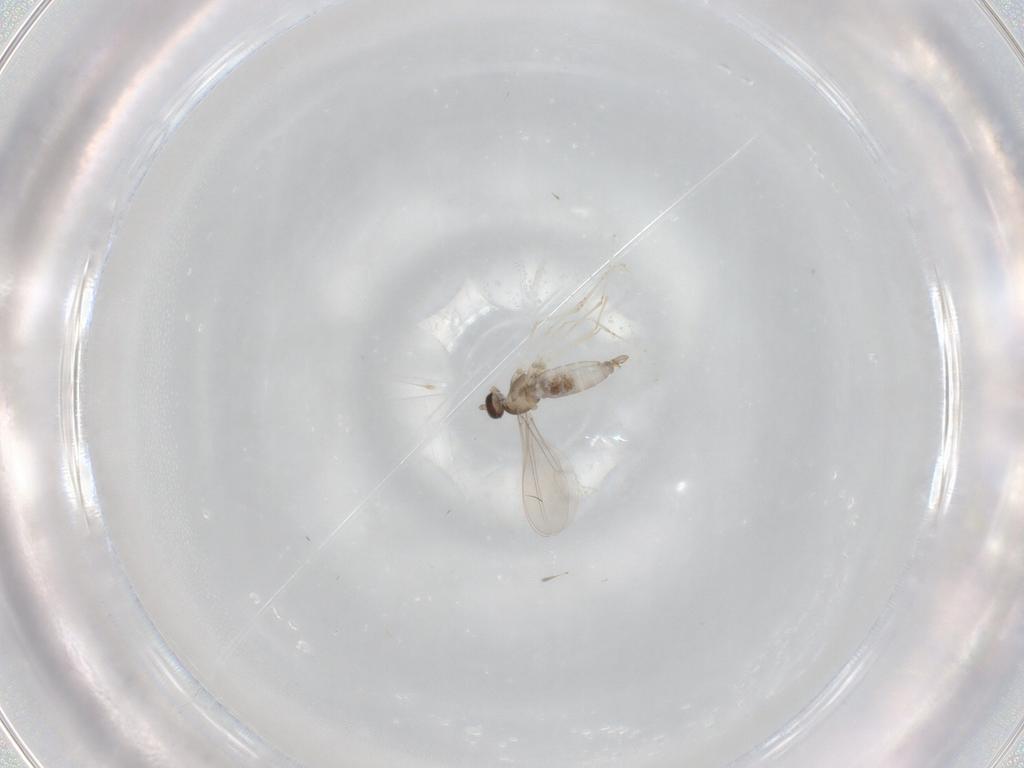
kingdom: Animalia
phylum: Arthropoda
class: Insecta
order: Diptera
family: Cecidomyiidae
